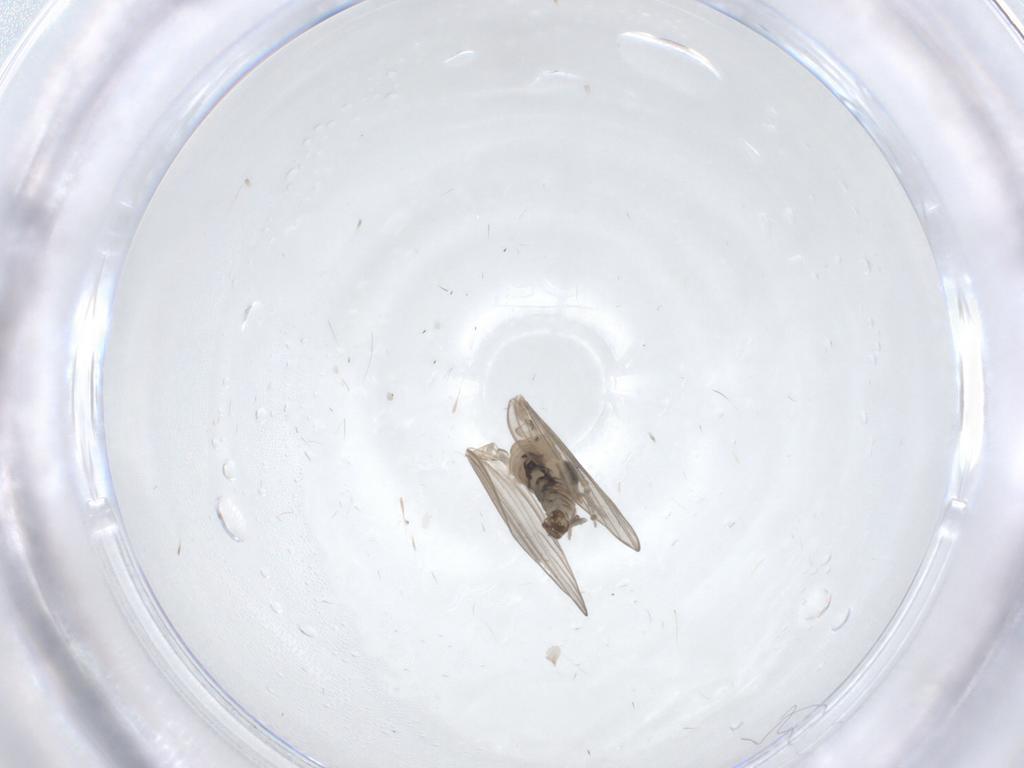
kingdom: Animalia
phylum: Arthropoda
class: Insecta
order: Diptera
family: Psychodidae
